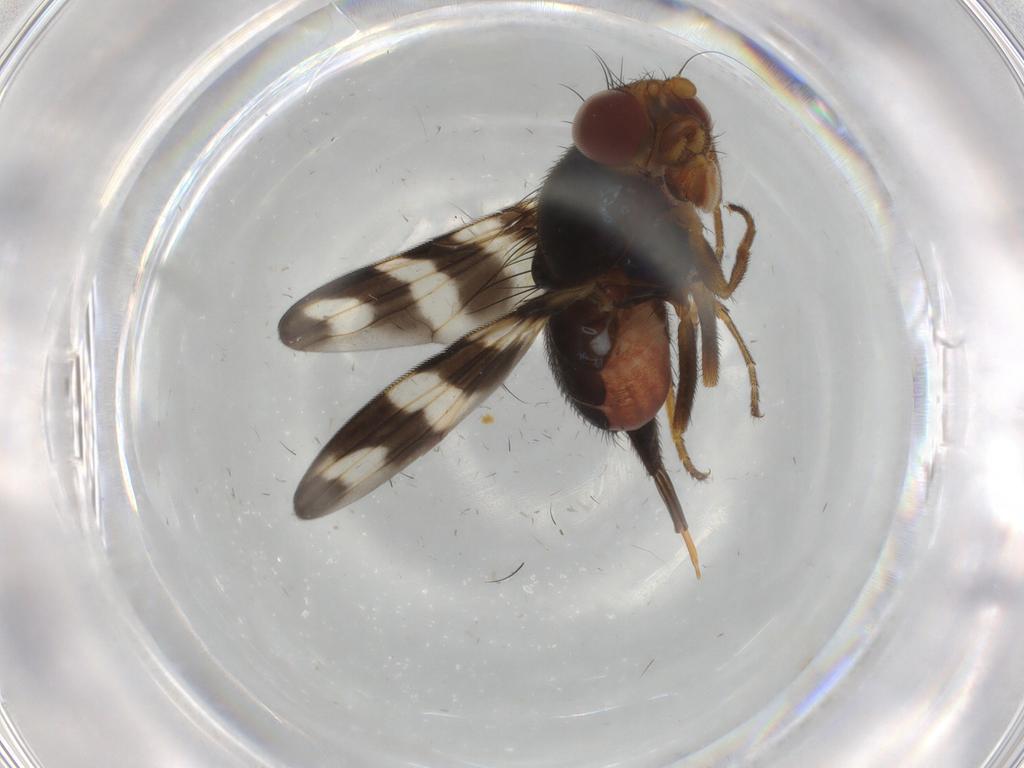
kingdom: Animalia
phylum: Arthropoda
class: Insecta
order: Diptera
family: Ulidiidae
